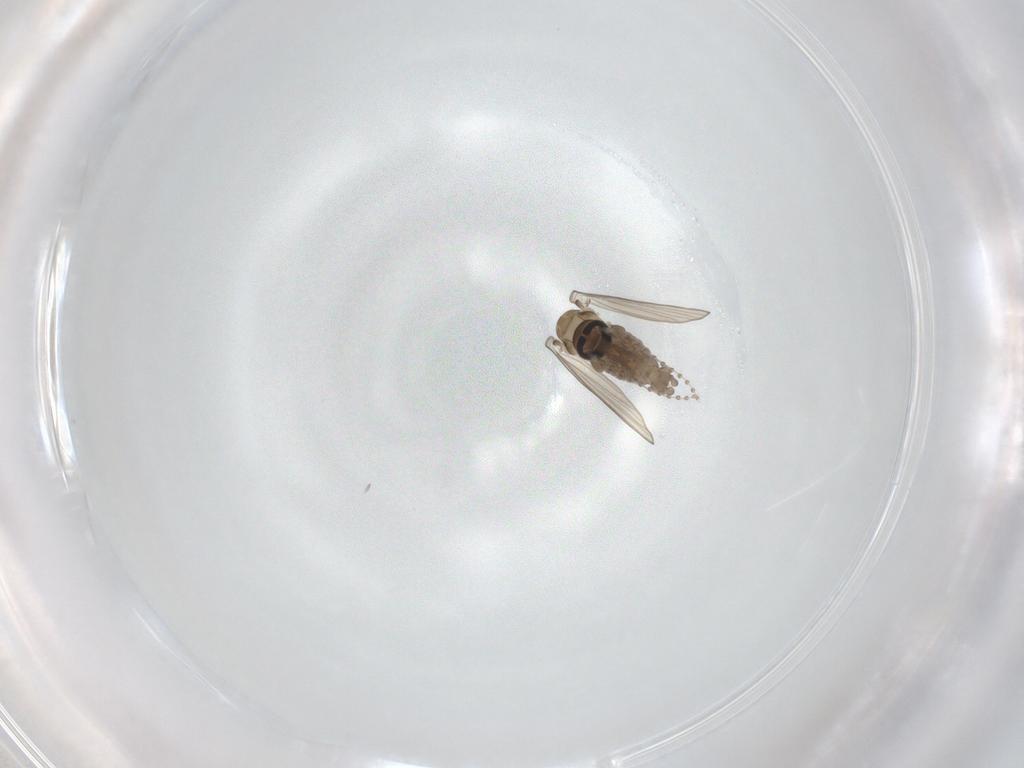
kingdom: Animalia
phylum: Arthropoda
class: Insecta
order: Diptera
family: Psychodidae
